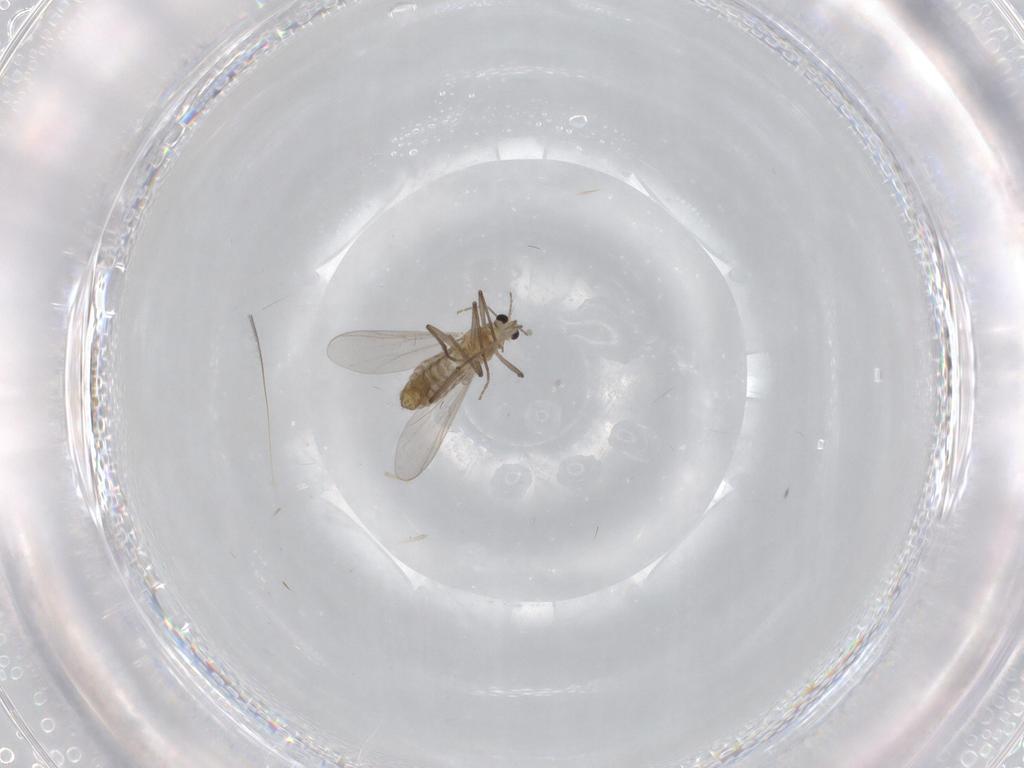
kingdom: Animalia
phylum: Arthropoda
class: Insecta
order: Diptera
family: Chironomidae
